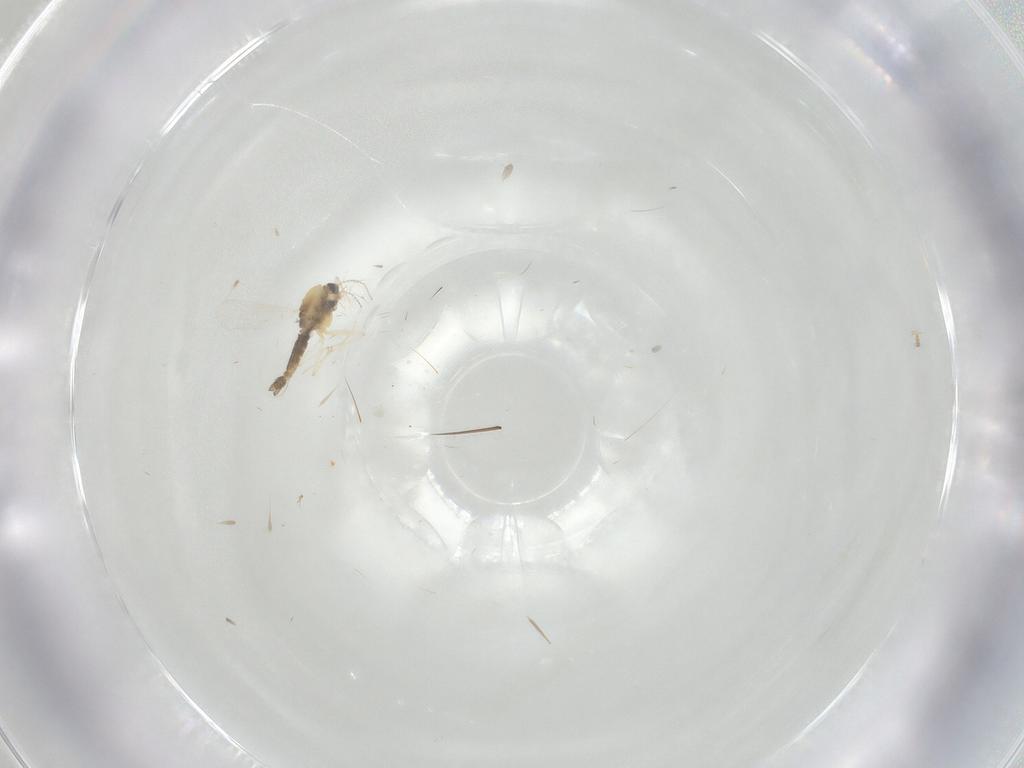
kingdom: Animalia
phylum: Arthropoda
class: Insecta
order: Diptera
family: Chironomidae
